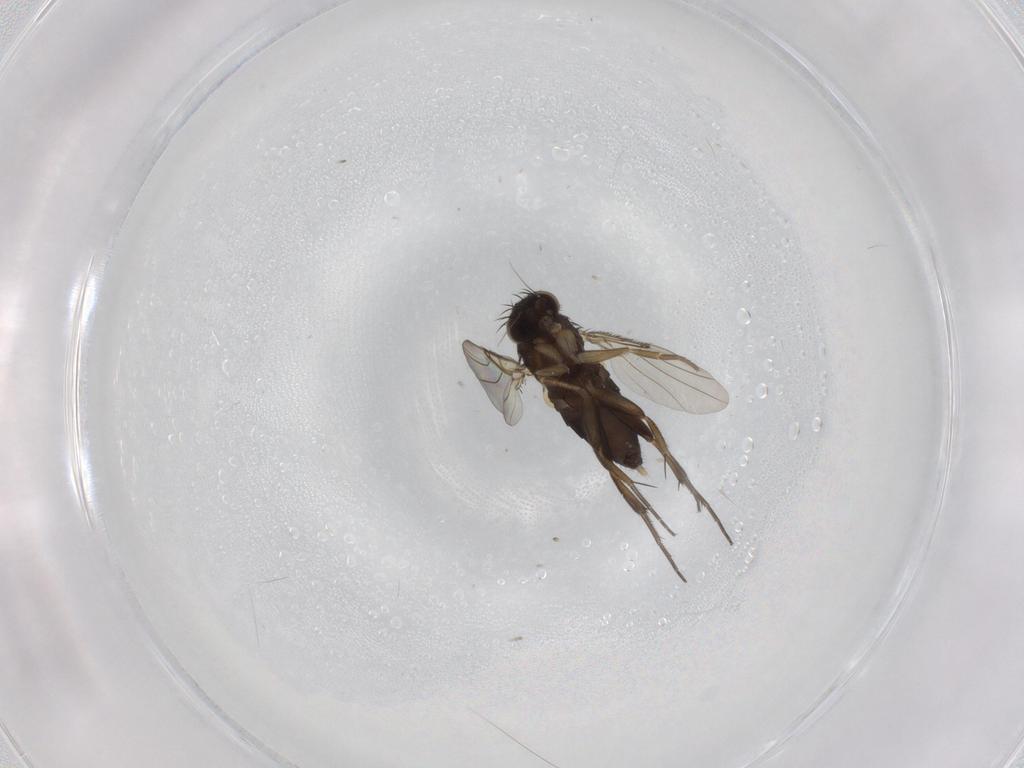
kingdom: Animalia
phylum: Arthropoda
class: Insecta
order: Diptera
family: Phoridae
